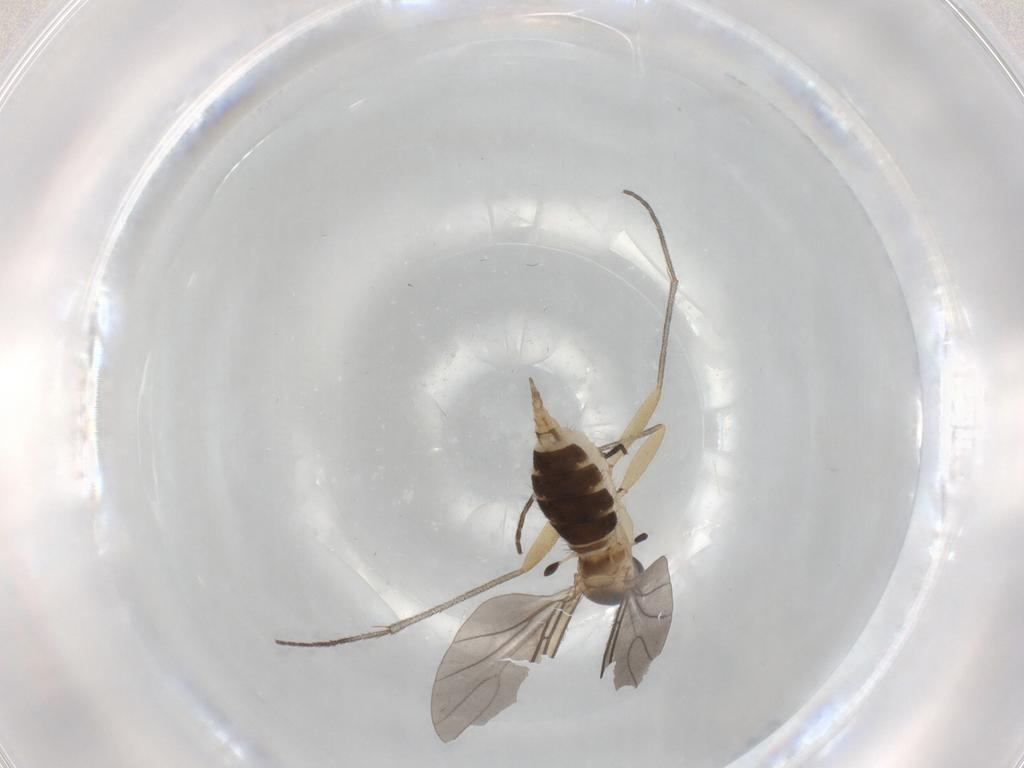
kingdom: Animalia
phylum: Arthropoda
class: Insecta
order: Diptera
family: Sciaridae
